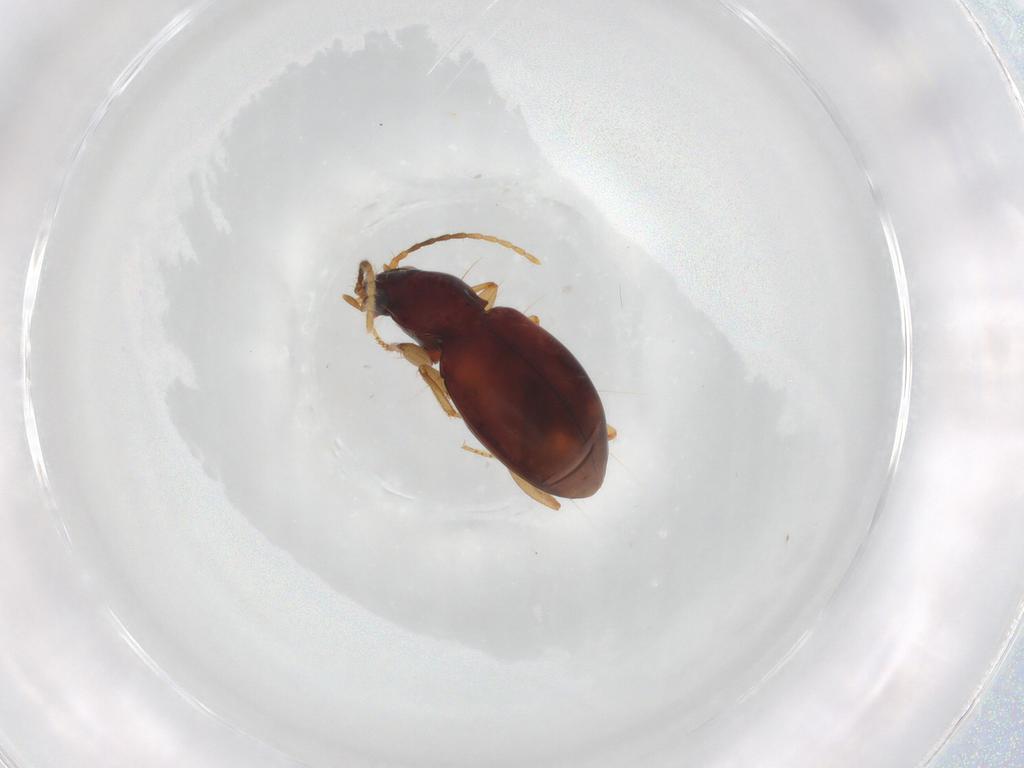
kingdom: Animalia
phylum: Arthropoda
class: Insecta
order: Coleoptera
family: Carabidae
